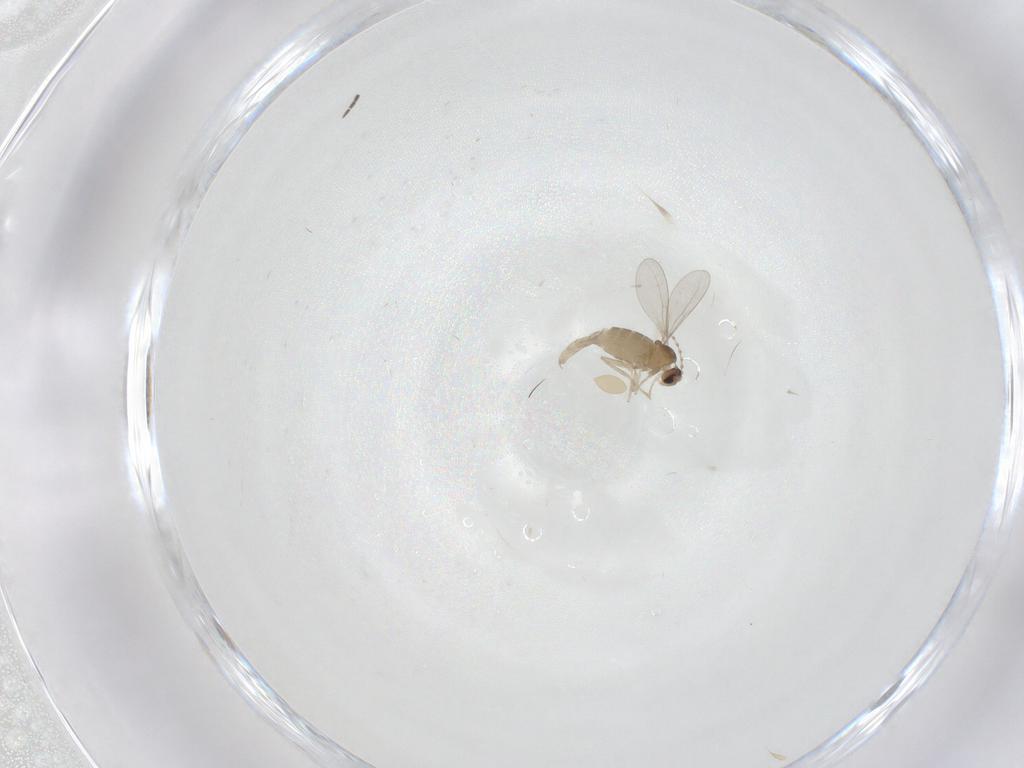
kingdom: Animalia
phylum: Arthropoda
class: Insecta
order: Diptera
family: Cecidomyiidae
